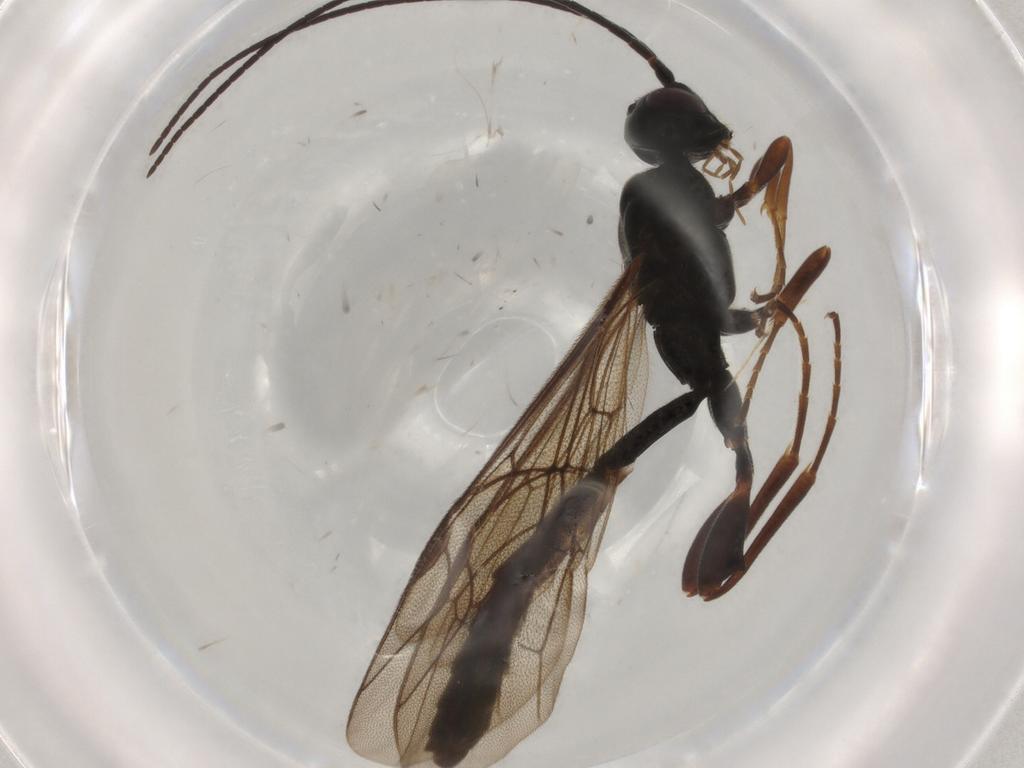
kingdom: Animalia
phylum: Arthropoda
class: Insecta
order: Hymenoptera
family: Ichneumonidae
